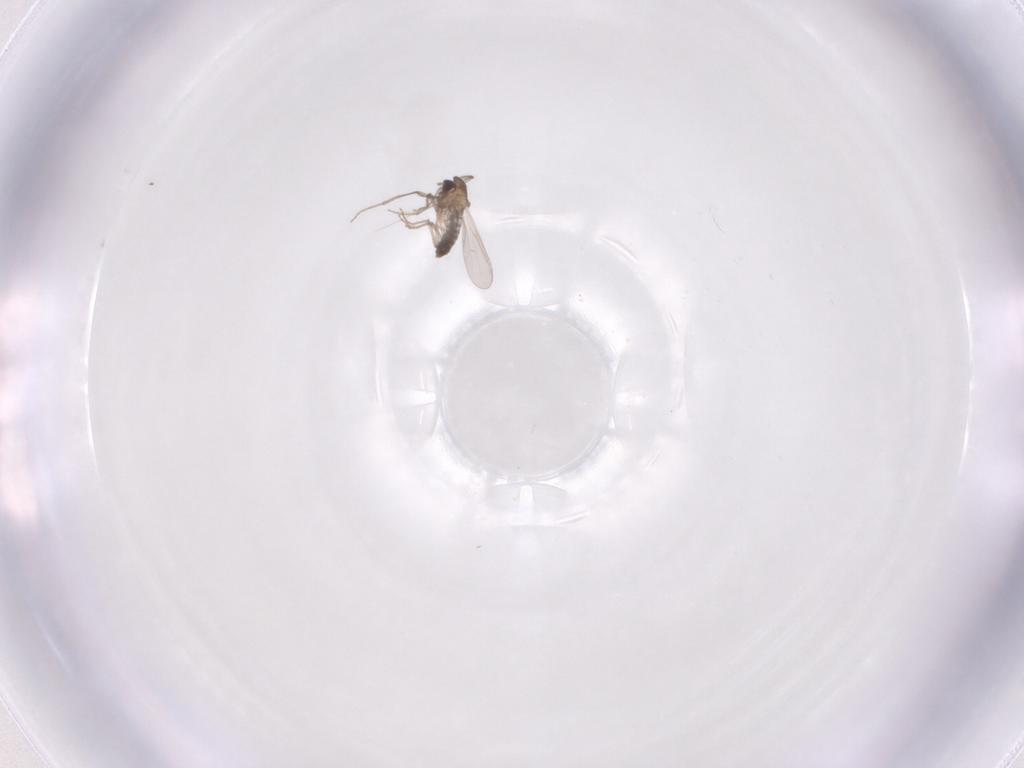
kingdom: Animalia
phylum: Arthropoda
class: Insecta
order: Diptera
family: Chironomidae
